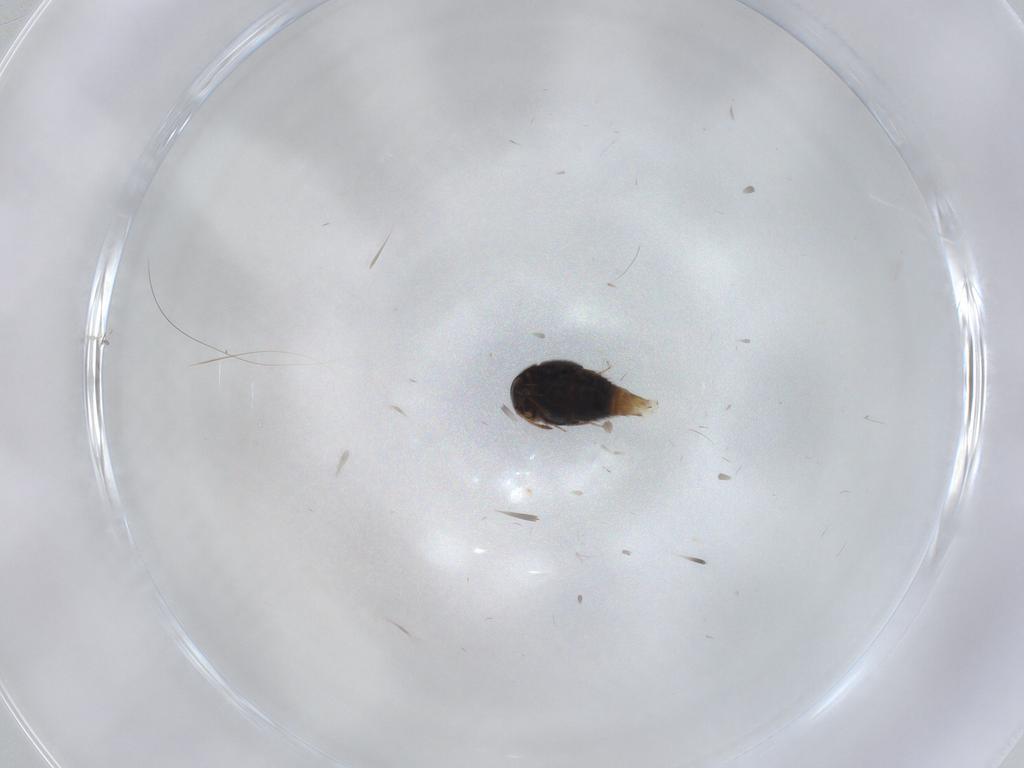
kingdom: Animalia
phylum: Arthropoda
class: Insecta
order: Coleoptera
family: Staphylinidae
